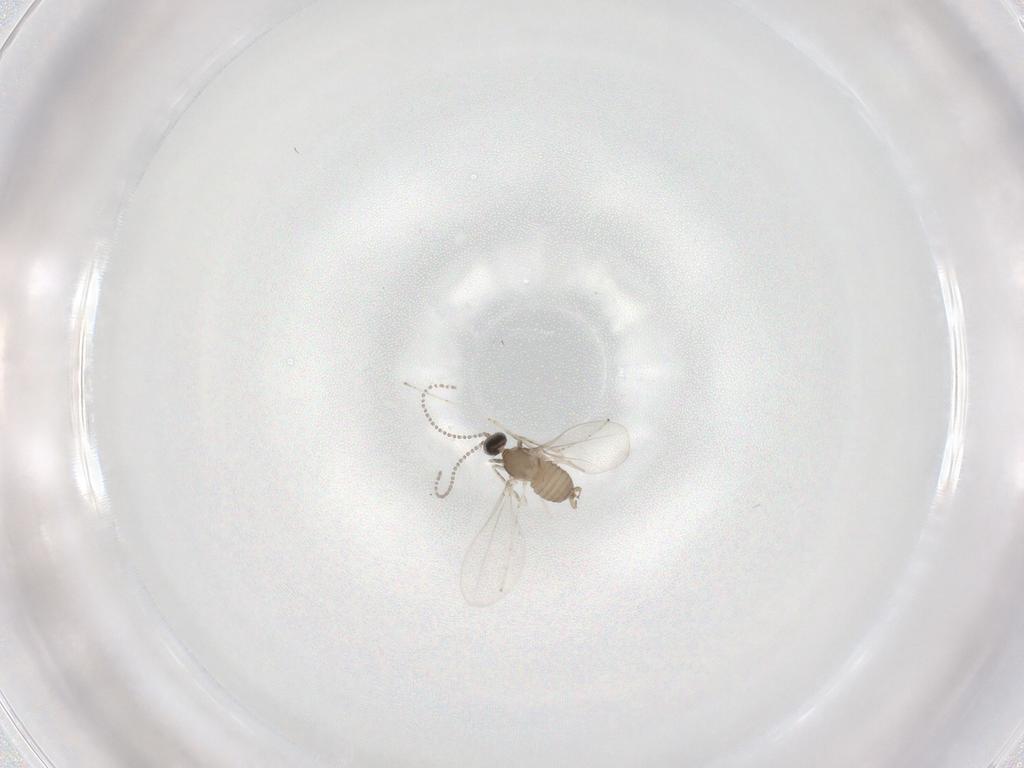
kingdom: Animalia
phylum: Arthropoda
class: Insecta
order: Diptera
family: Cecidomyiidae
